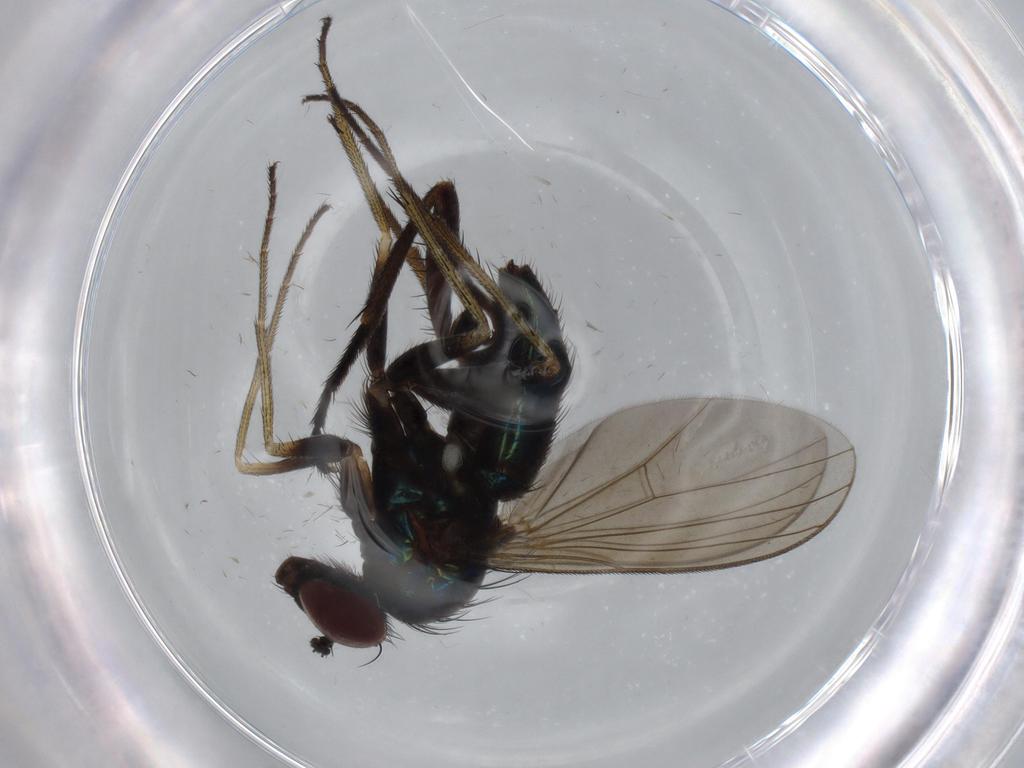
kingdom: Animalia
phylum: Arthropoda
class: Insecta
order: Diptera
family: Fannia
